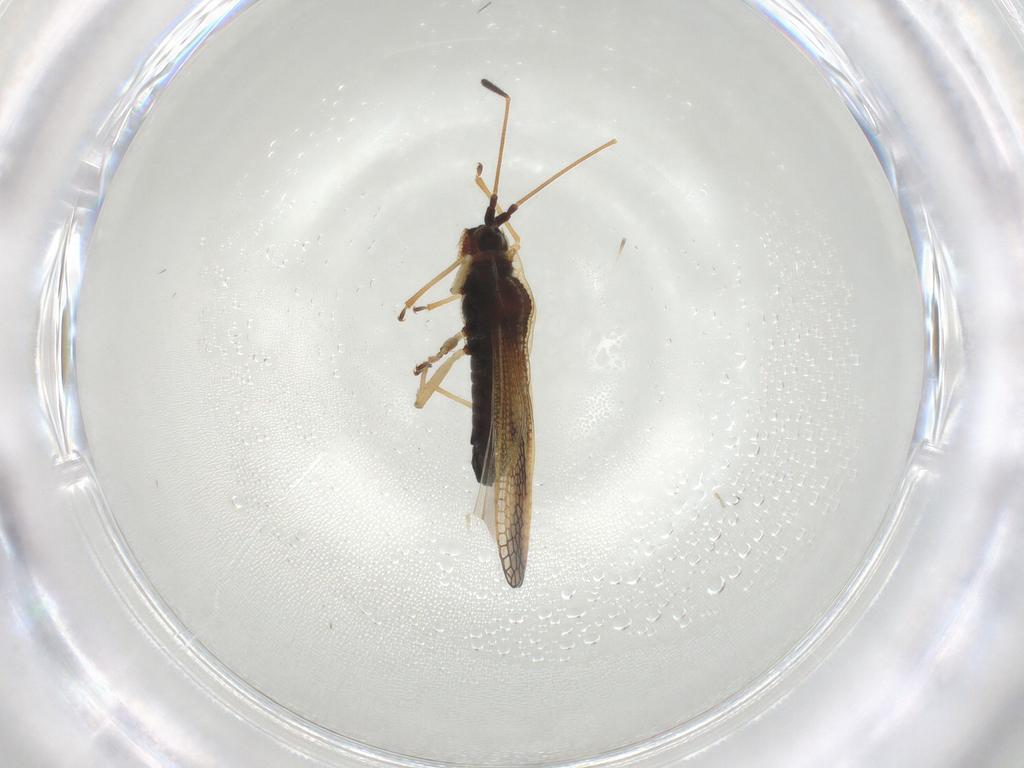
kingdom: Animalia
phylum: Arthropoda
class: Insecta
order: Hemiptera
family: Tingidae
